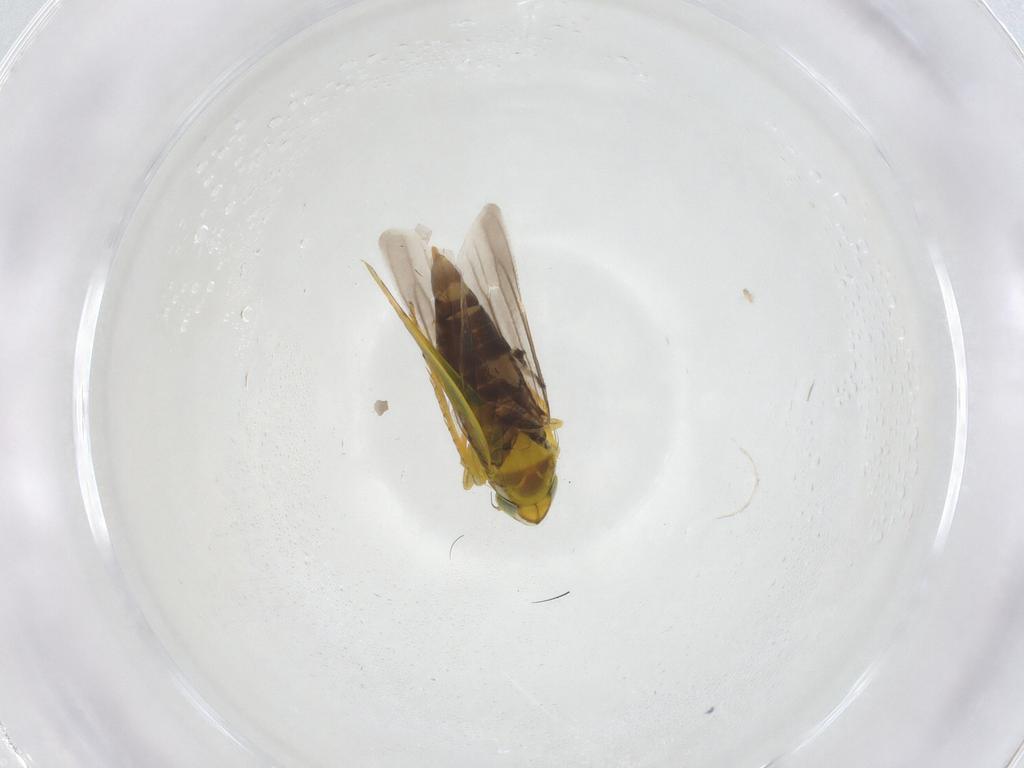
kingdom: Animalia
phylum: Arthropoda
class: Insecta
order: Hemiptera
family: Cicadellidae
